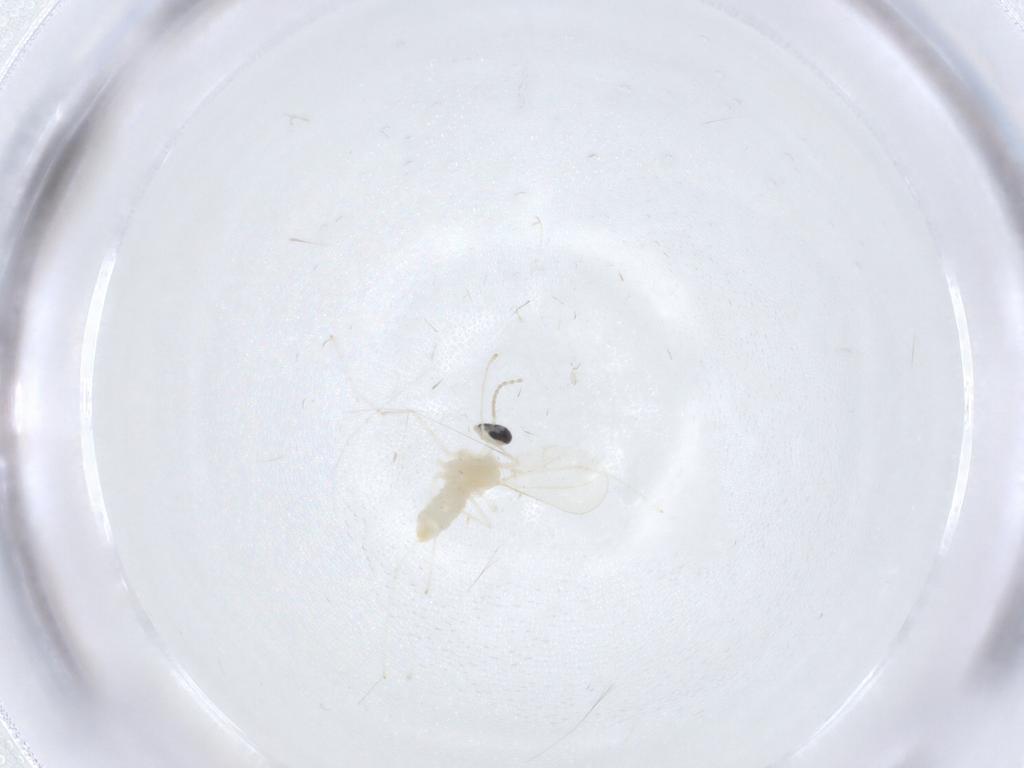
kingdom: Animalia
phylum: Arthropoda
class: Insecta
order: Diptera
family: Cecidomyiidae
